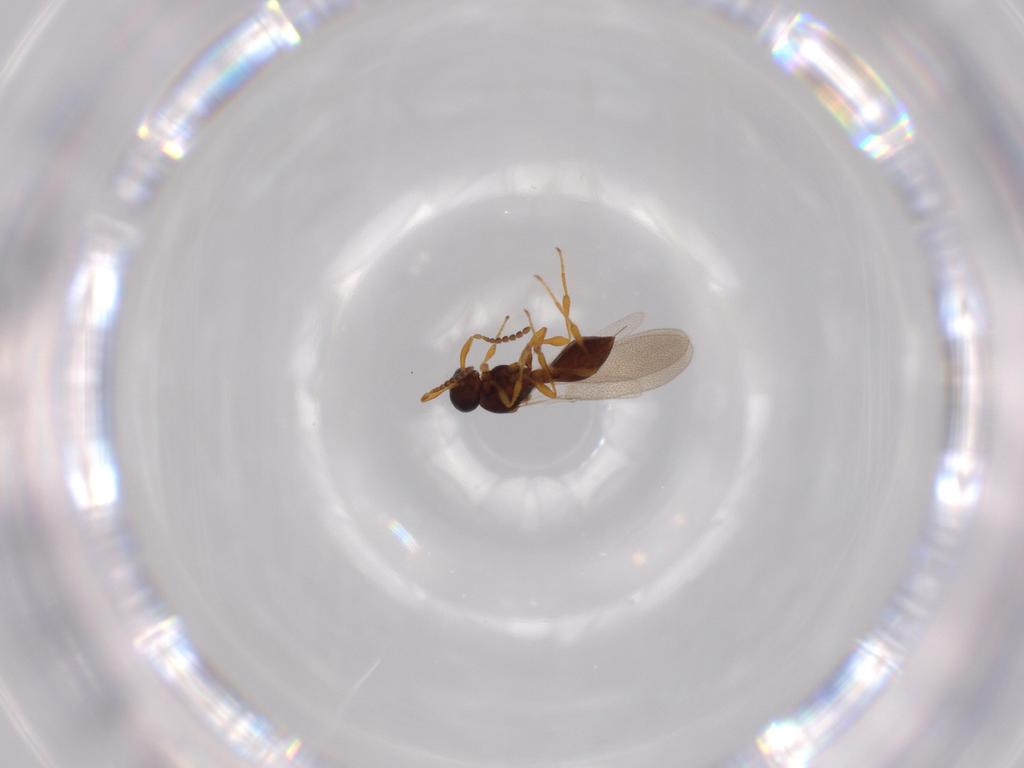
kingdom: Animalia
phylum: Arthropoda
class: Insecta
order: Diptera
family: Mythicomyiidae
